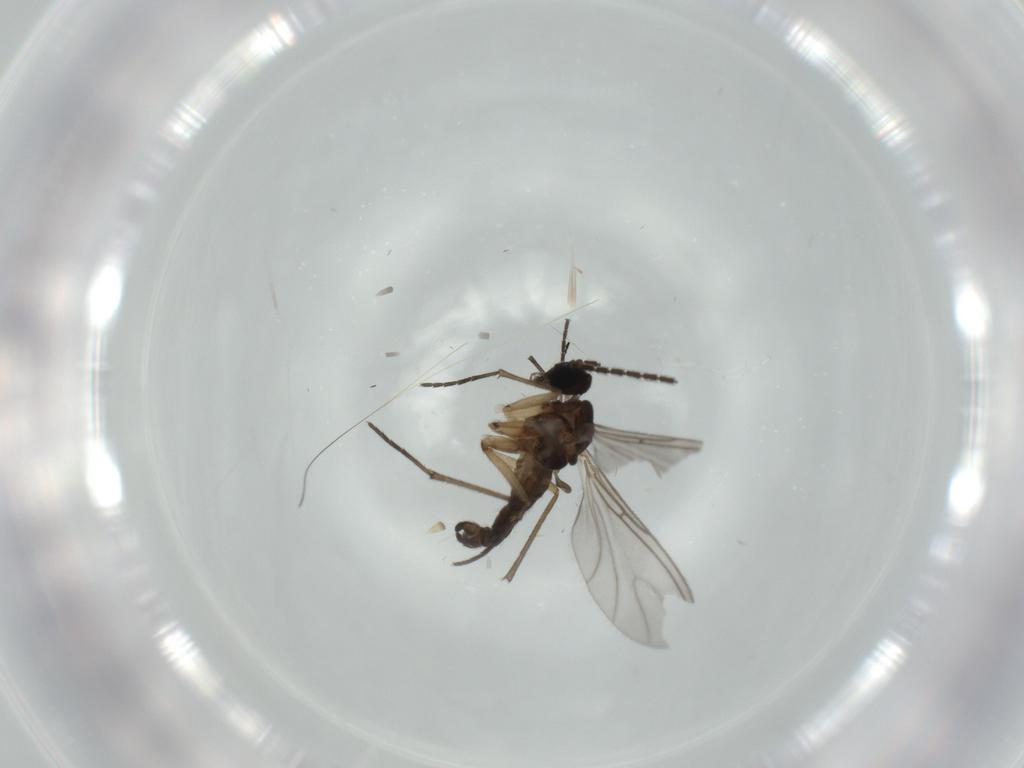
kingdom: Animalia
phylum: Arthropoda
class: Insecta
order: Diptera
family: Sciaridae
